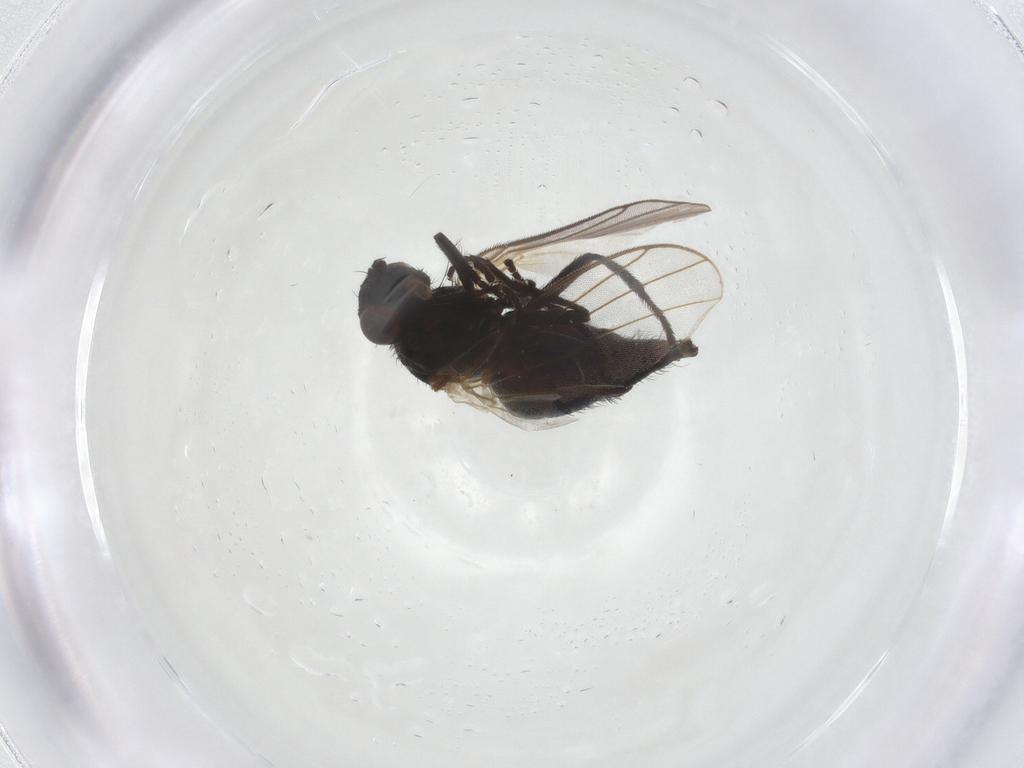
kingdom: Animalia
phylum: Arthropoda
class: Insecta
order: Diptera
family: Agromyzidae
